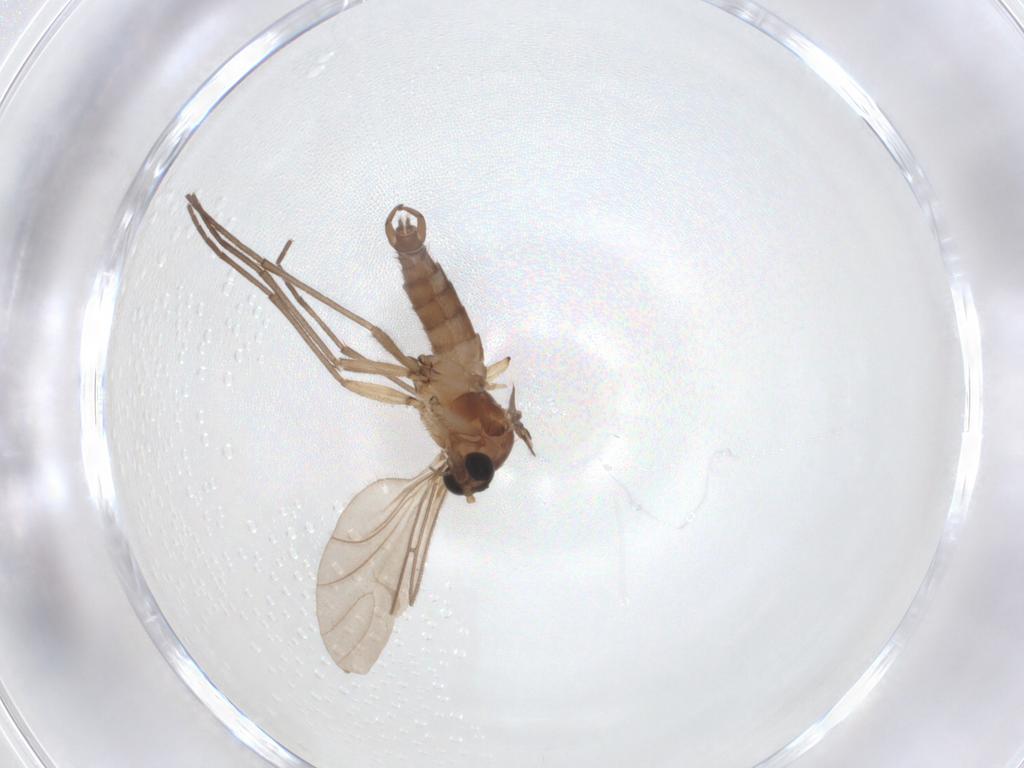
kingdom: Animalia
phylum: Arthropoda
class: Insecta
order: Diptera
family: Sciaridae
